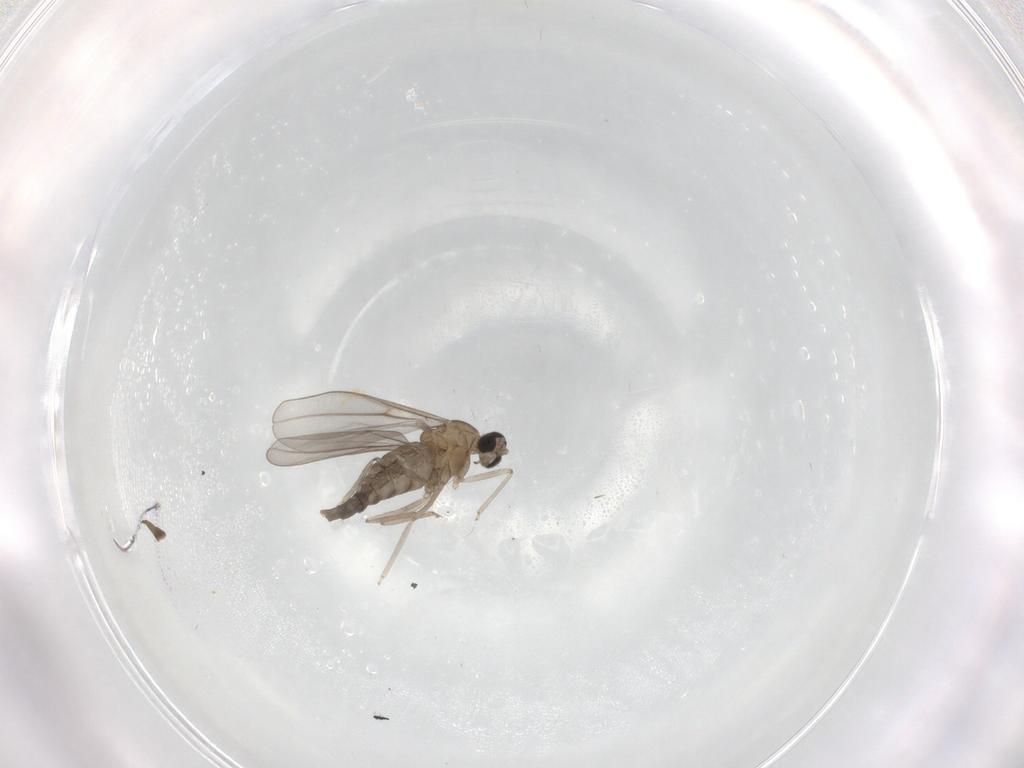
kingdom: Animalia
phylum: Arthropoda
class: Insecta
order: Diptera
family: Ceratopogonidae
